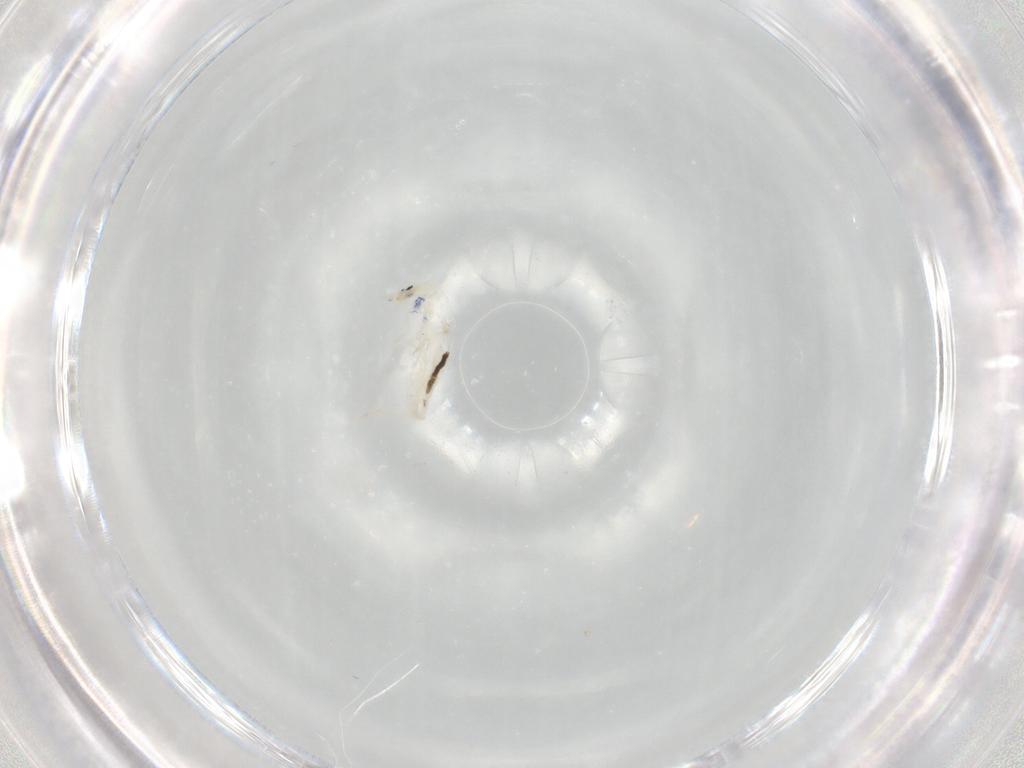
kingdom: Animalia
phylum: Arthropoda
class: Collembola
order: Entomobryomorpha
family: Entomobryidae
